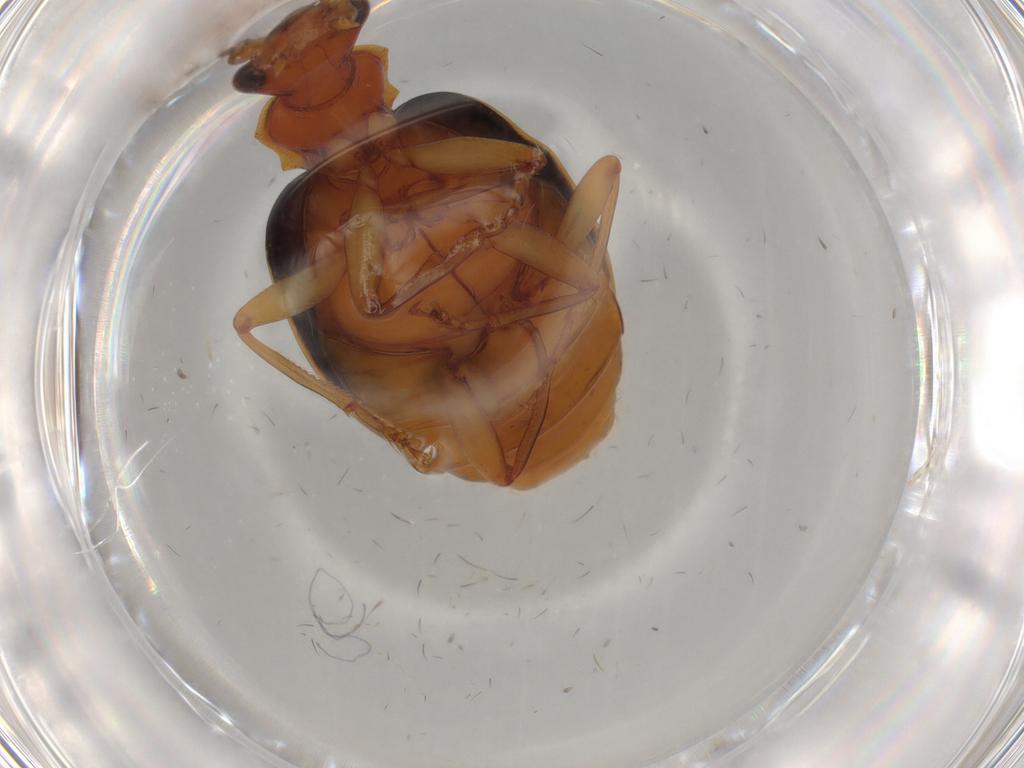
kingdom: Animalia
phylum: Arthropoda
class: Insecta
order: Coleoptera
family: Carabidae
